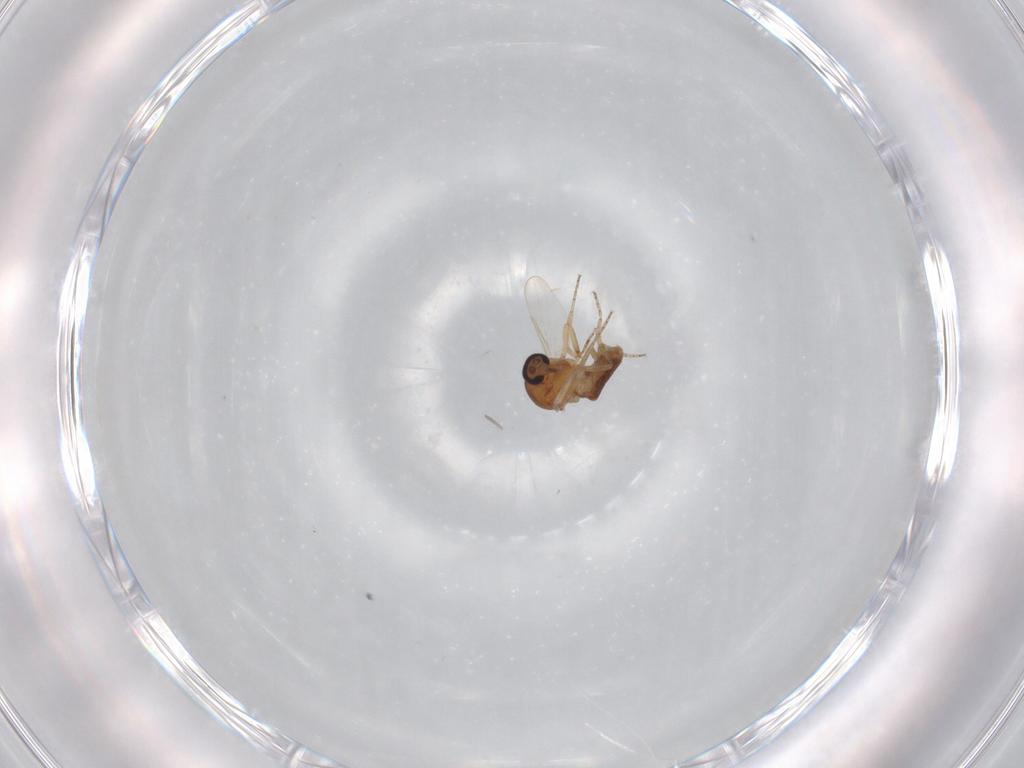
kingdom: Animalia
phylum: Arthropoda
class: Insecta
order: Diptera
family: Ceratopogonidae
